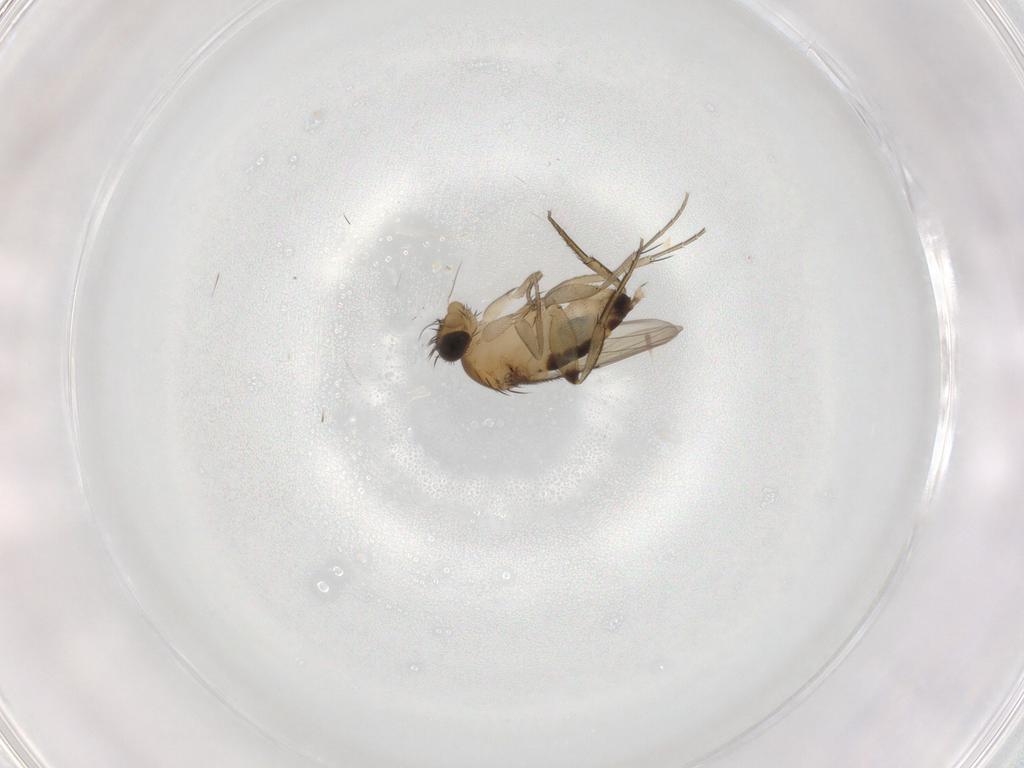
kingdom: Animalia
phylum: Arthropoda
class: Insecta
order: Diptera
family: Phoridae
